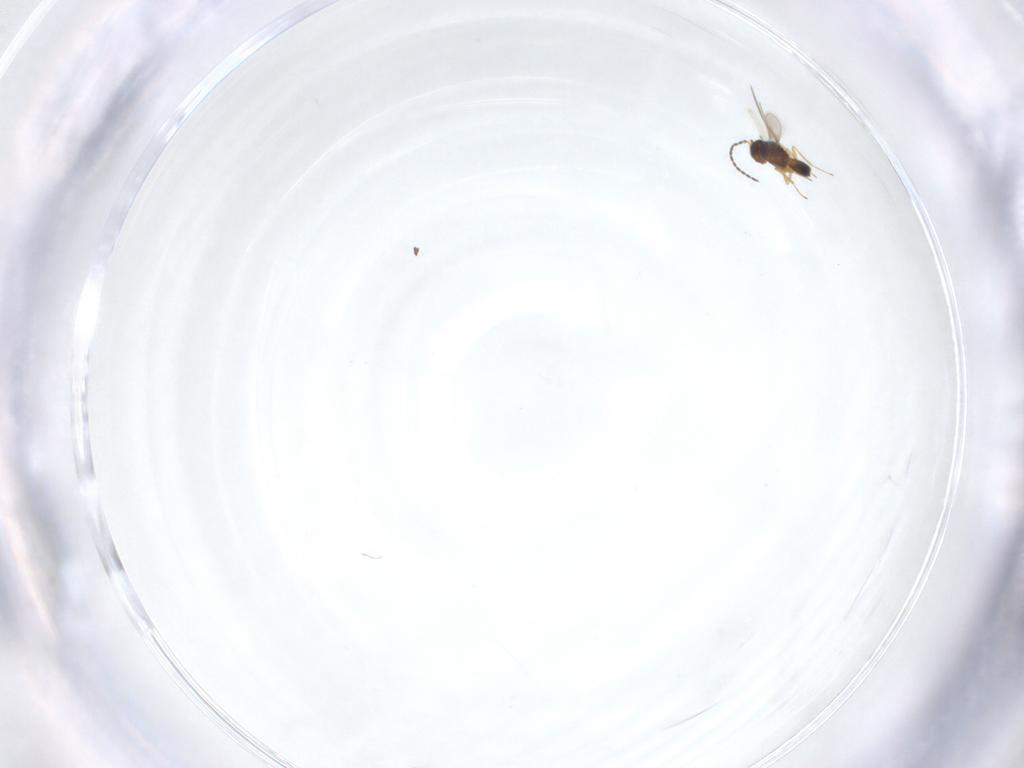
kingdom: Animalia
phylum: Arthropoda
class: Insecta
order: Hymenoptera
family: Scelionidae
